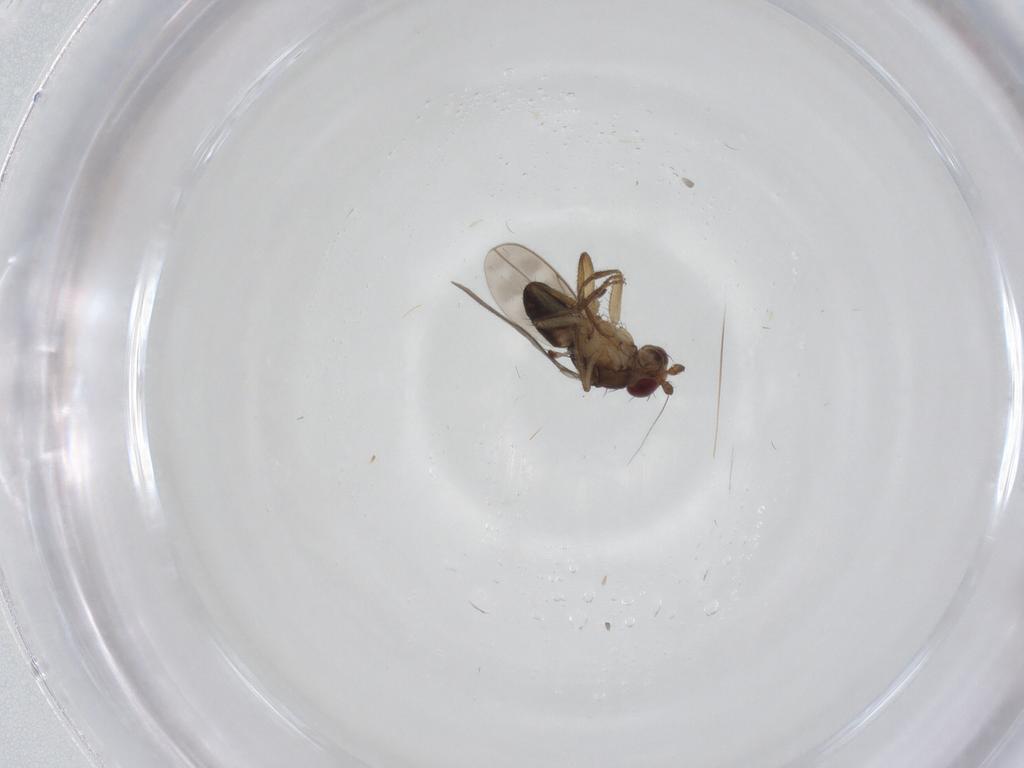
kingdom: Animalia
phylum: Arthropoda
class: Insecta
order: Diptera
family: Sphaeroceridae
